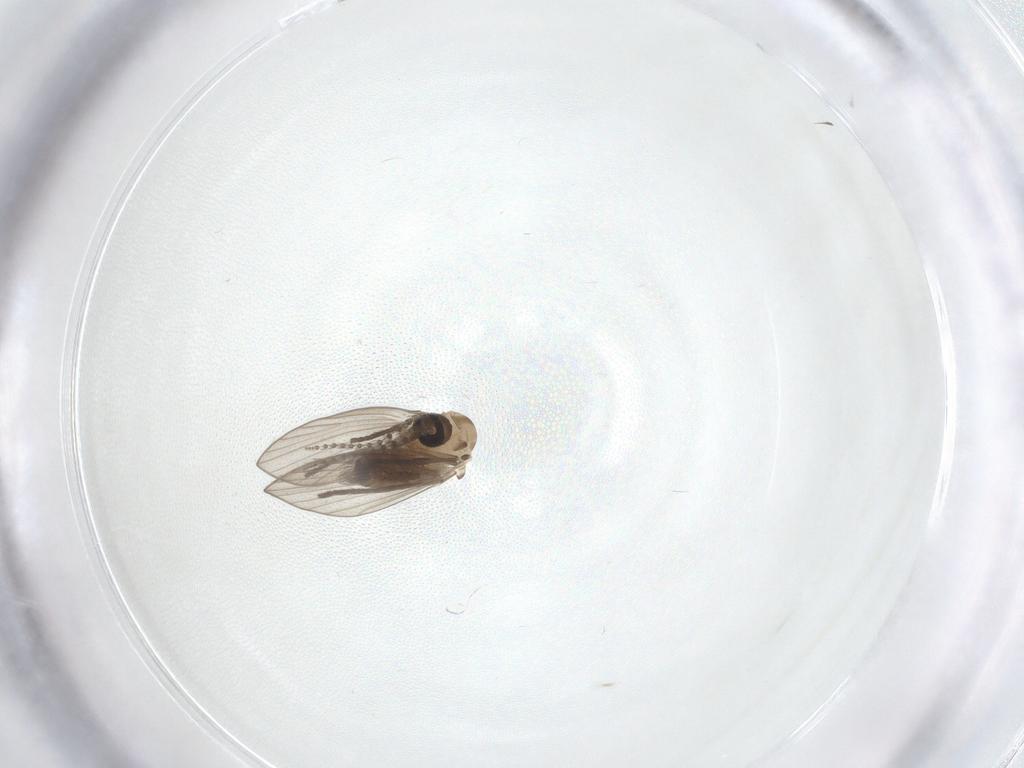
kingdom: Animalia
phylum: Arthropoda
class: Insecta
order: Diptera
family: Psychodidae
